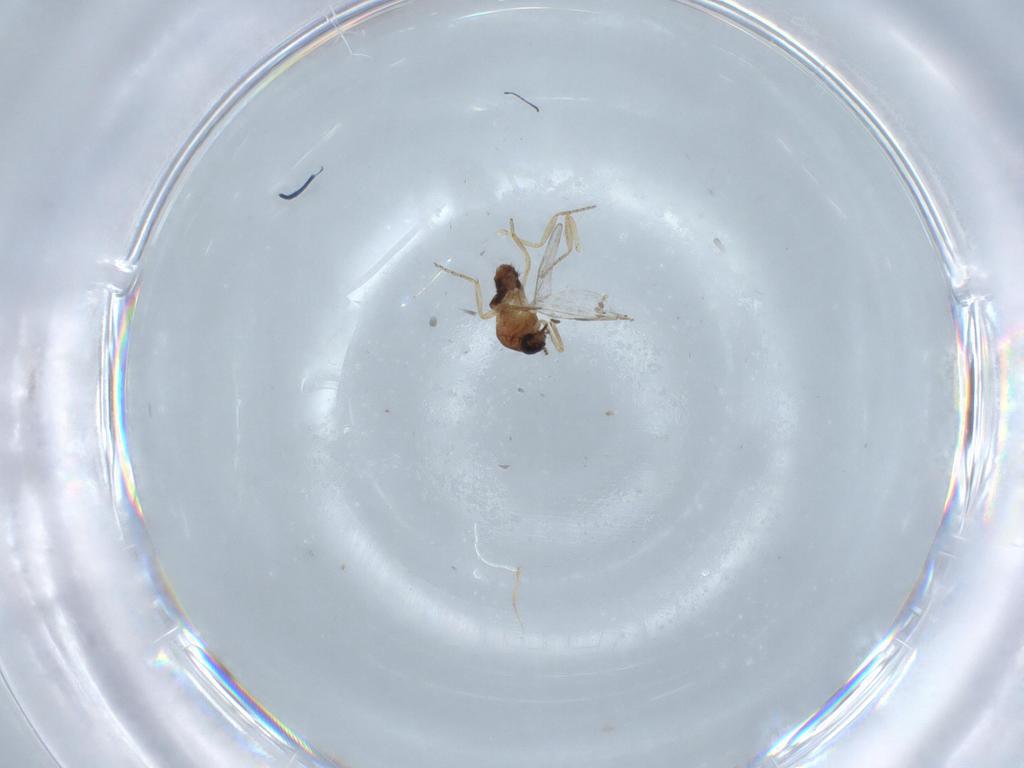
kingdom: Animalia
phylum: Arthropoda
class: Insecta
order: Diptera
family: Ceratopogonidae
